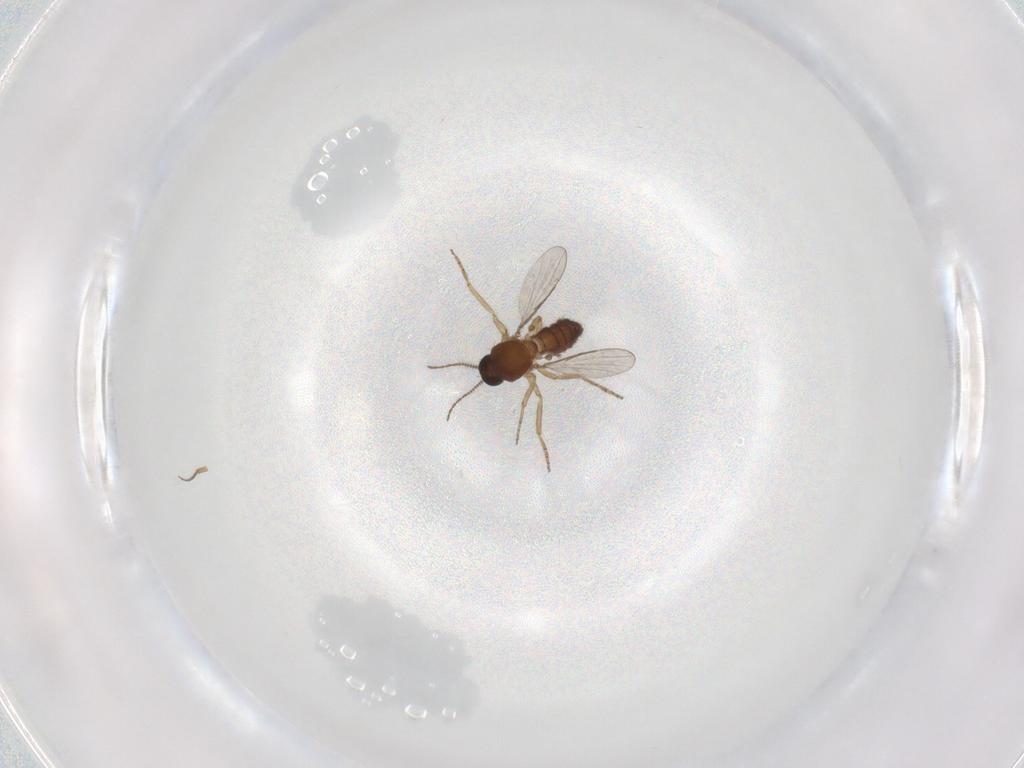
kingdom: Animalia
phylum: Arthropoda
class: Insecta
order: Diptera
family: Ceratopogonidae
